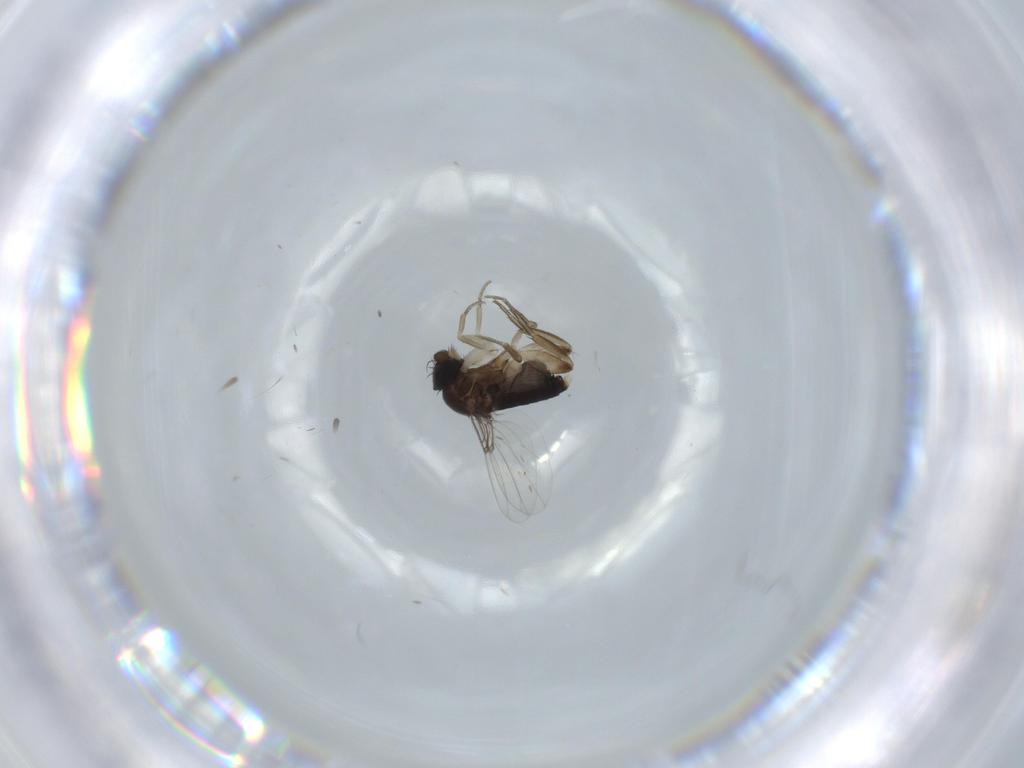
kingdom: Animalia
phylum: Arthropoda
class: Insecta
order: Diptera
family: Phoridae
